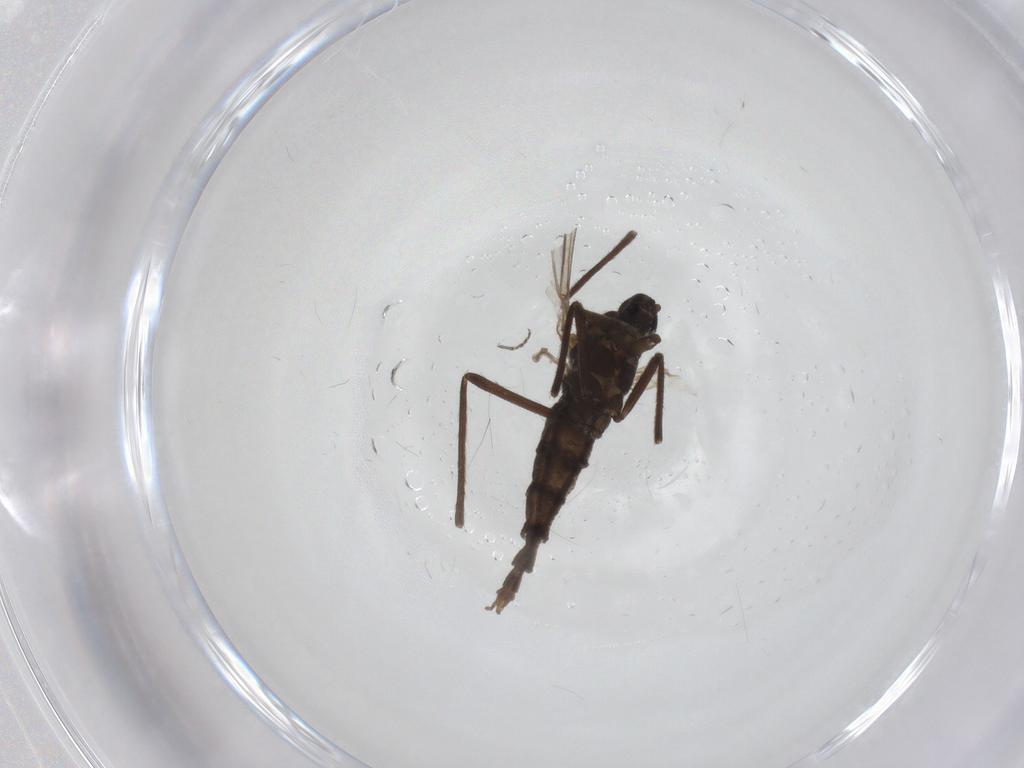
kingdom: Animalia
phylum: Arthropoda
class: Insecta
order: Diptera
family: Cecidomyiidae
